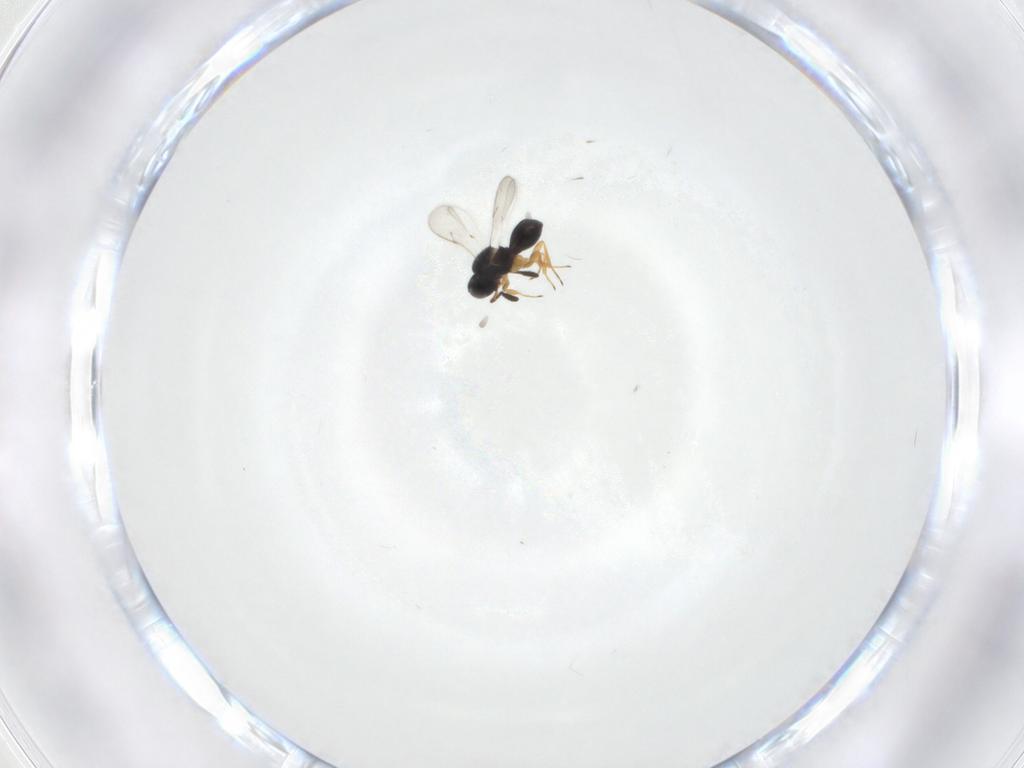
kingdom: Animalia
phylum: Arthropoda
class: Insecta
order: Hymenoptera
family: Scelionidae
